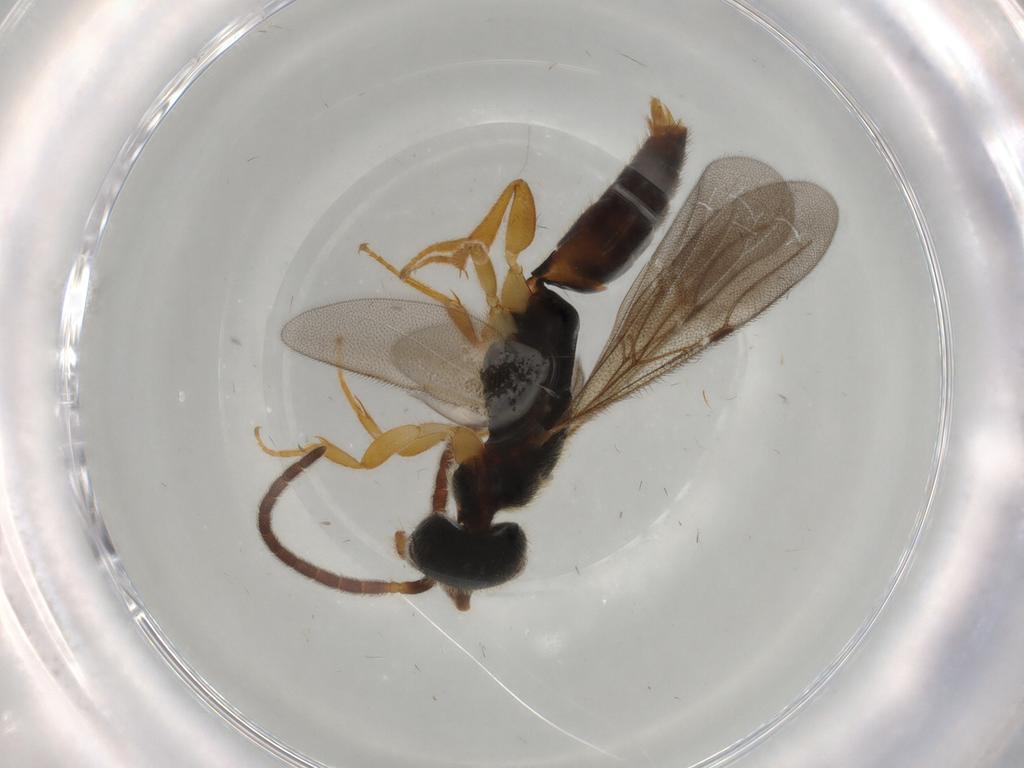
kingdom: Animalia
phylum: Arthropoda
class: Insecta
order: Hymenoptera
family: Bethylidae
